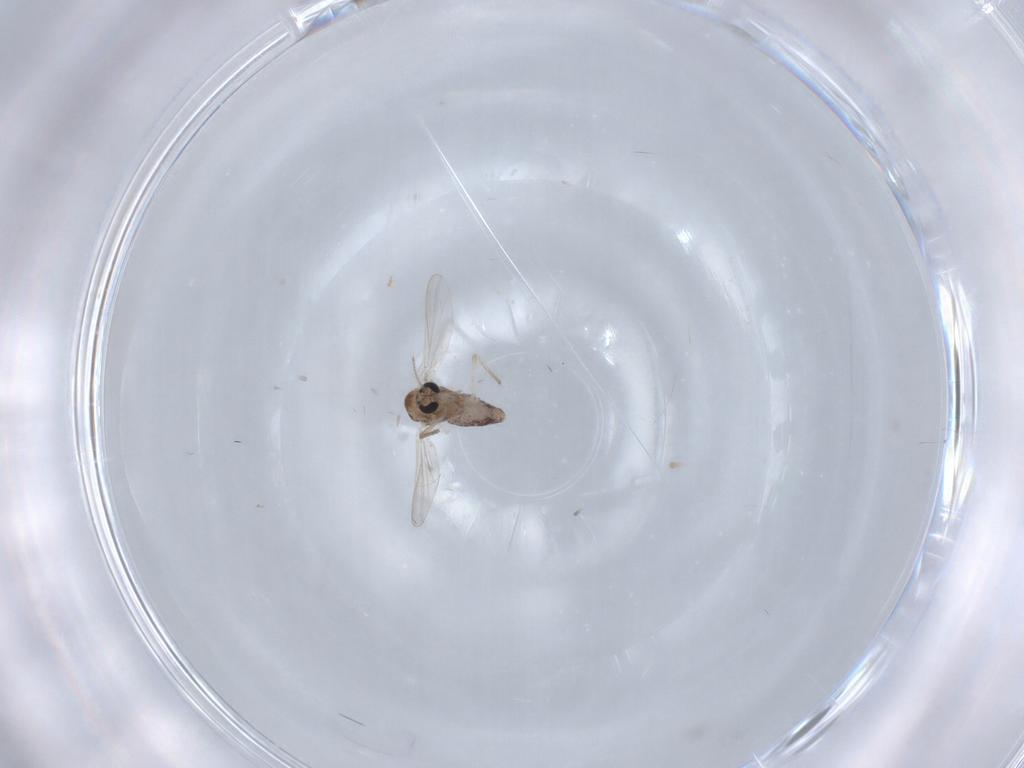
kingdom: Animalia
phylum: Arthropoda
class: Insecta
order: Diptera
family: Chironomidae
